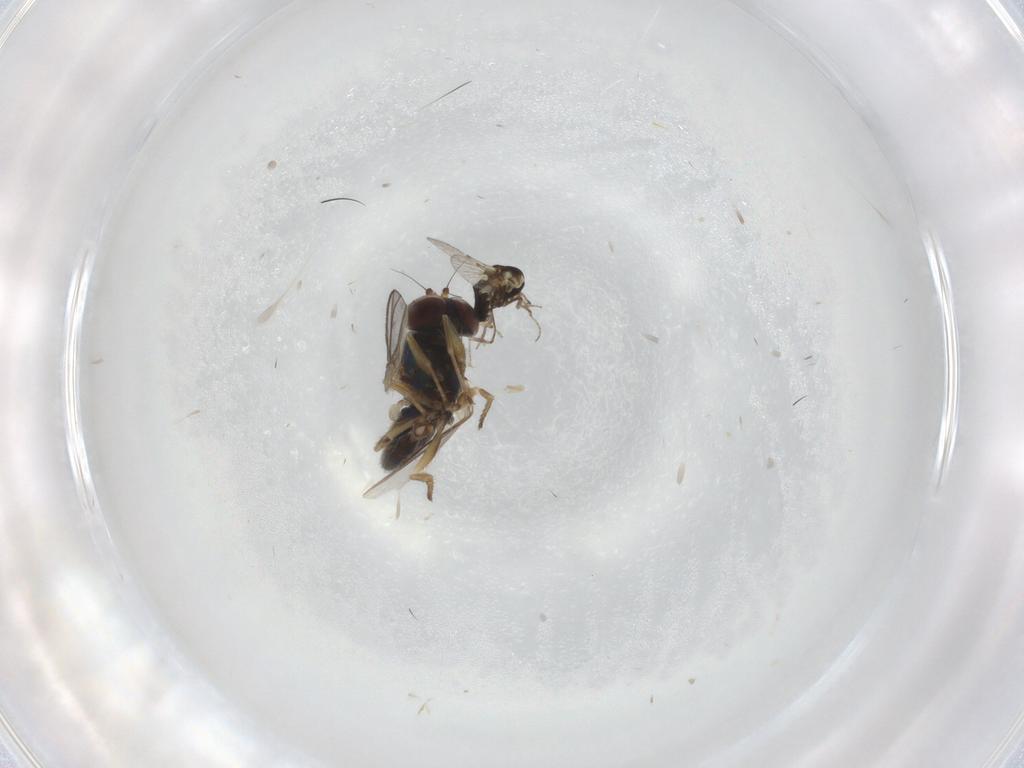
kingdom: Animalia
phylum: Arthropoda
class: Insecta
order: Diptera
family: Dolichopodidae
